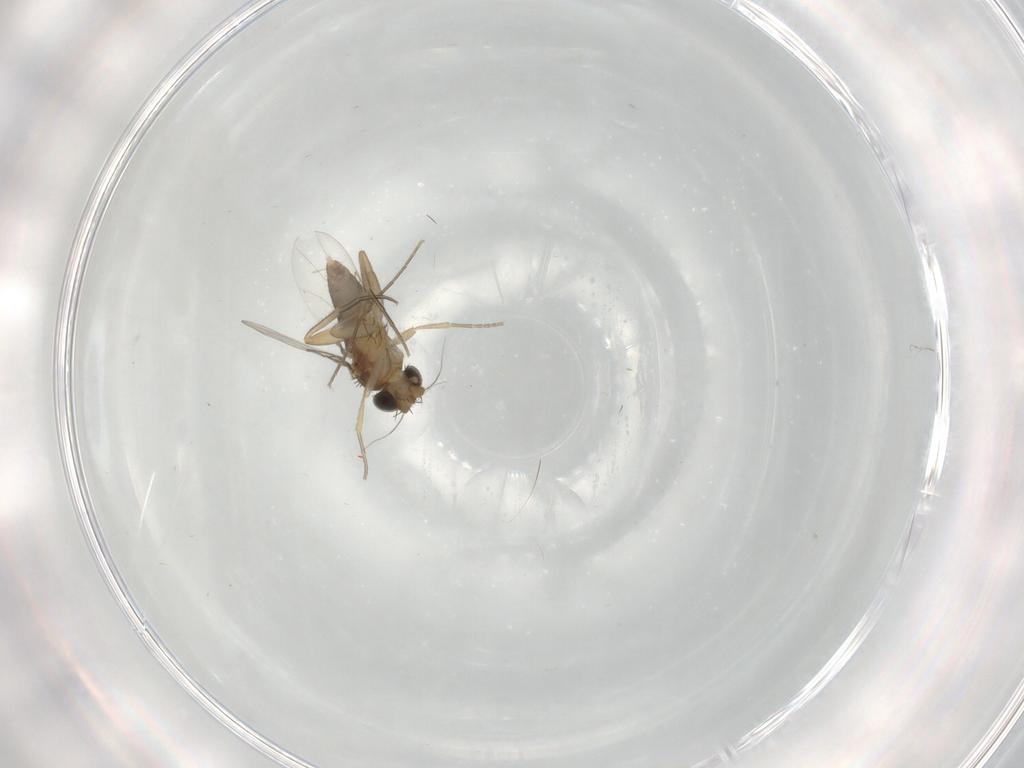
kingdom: Animalia
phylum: Arthropoda
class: Insecta
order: Diptera
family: Phoridae
